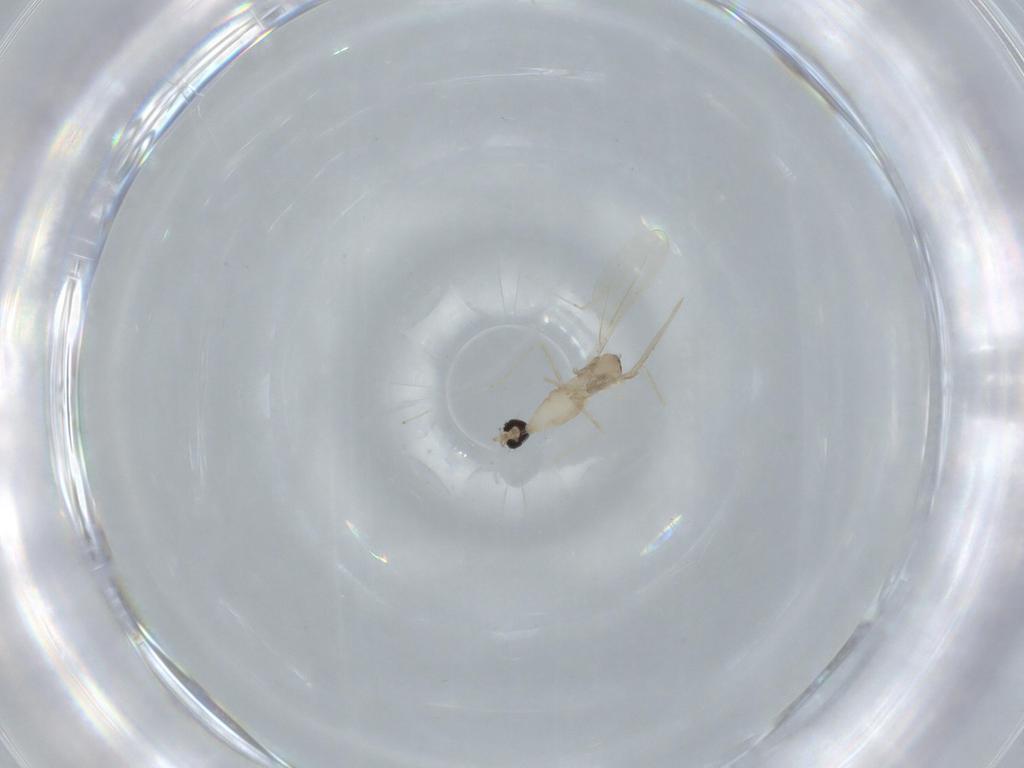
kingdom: Animalia
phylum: Arthropoda
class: Insecta
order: Diptera
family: Cecidomyiidae
